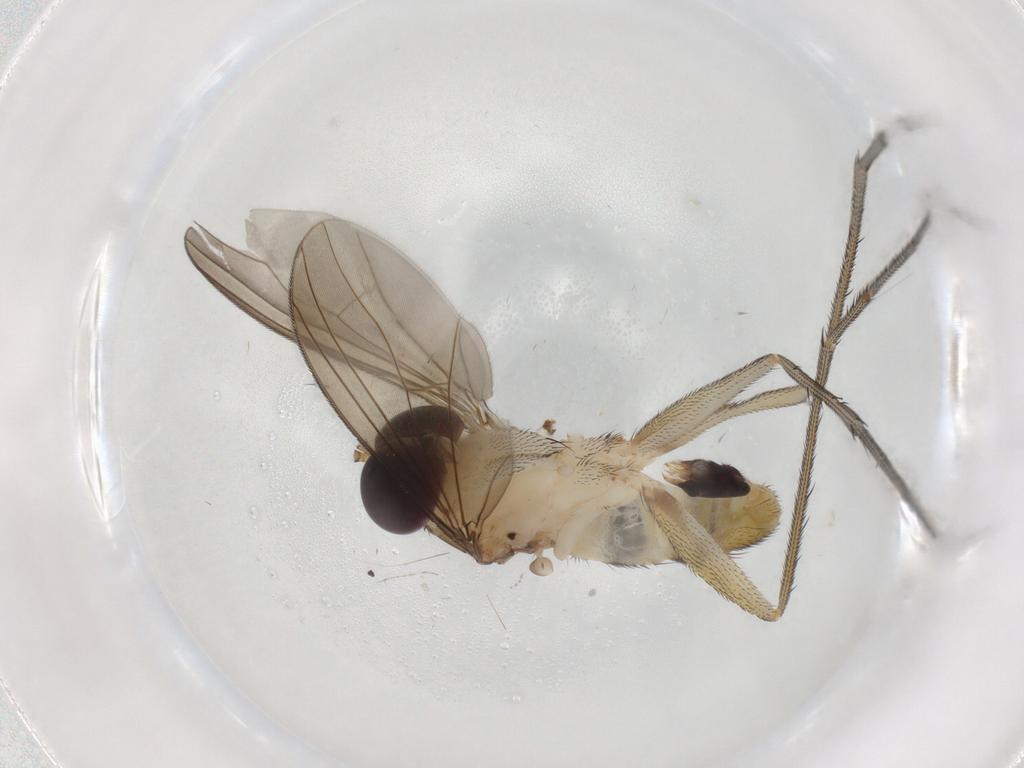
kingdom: Animalia
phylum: Arthropoda
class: Insecta
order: Diptera
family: Dolichopodidae
